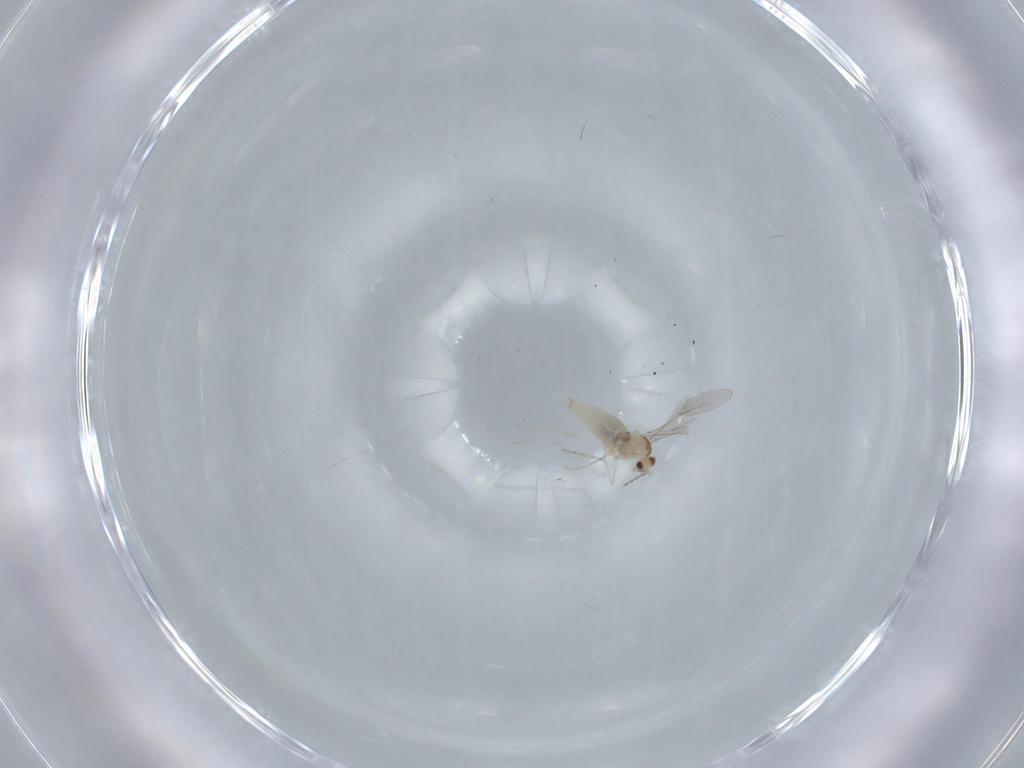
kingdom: Animalia
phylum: Arthropoda
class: Insecta
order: Diptera
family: Cecidomyiidae
